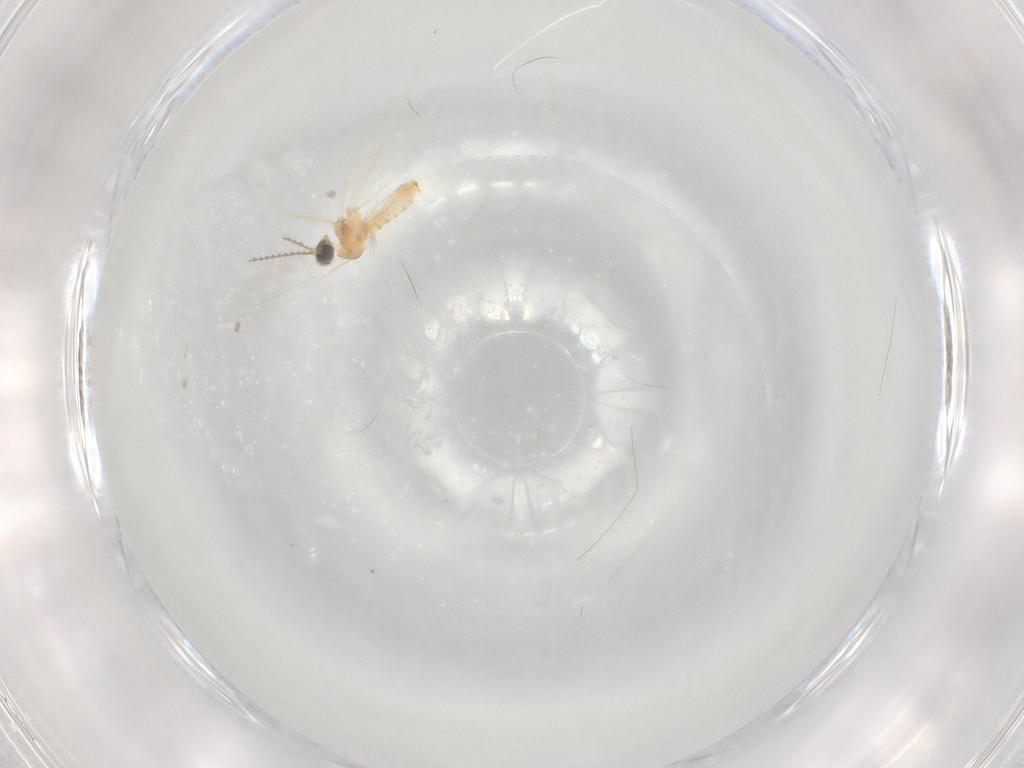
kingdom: Animalia
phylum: Arthropoda
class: Insecta
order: Diptera
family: Cecidomyiidae
